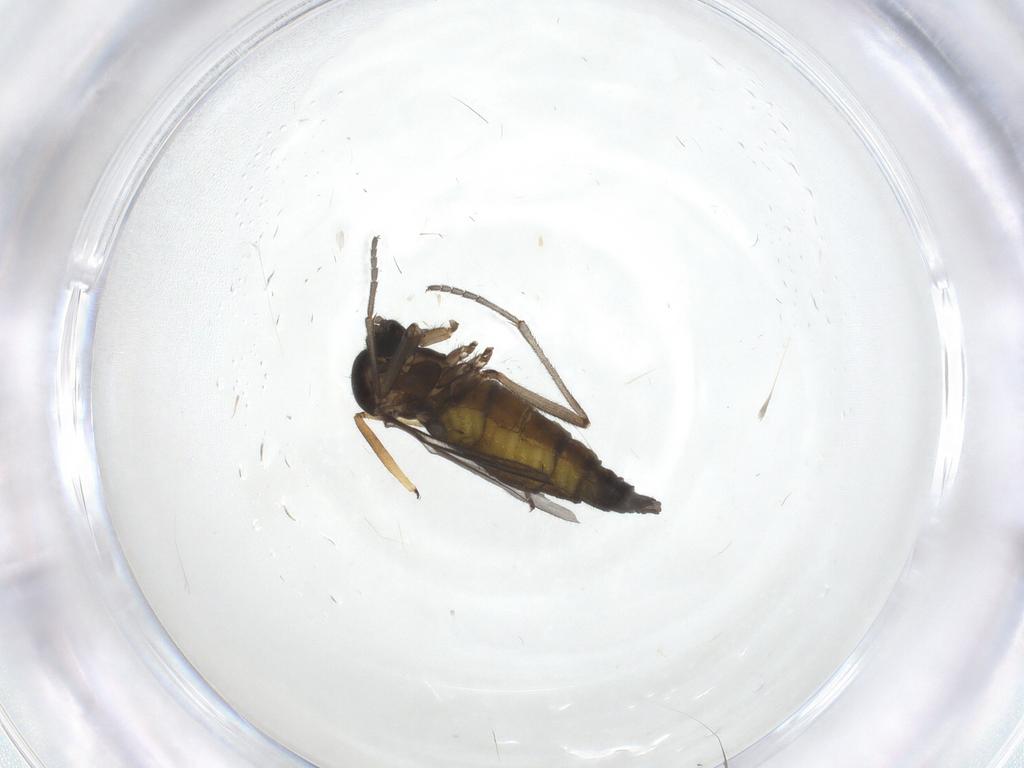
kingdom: Animalia
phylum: Arthropoda
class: Insecta
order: Diptera
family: Sciaridae
